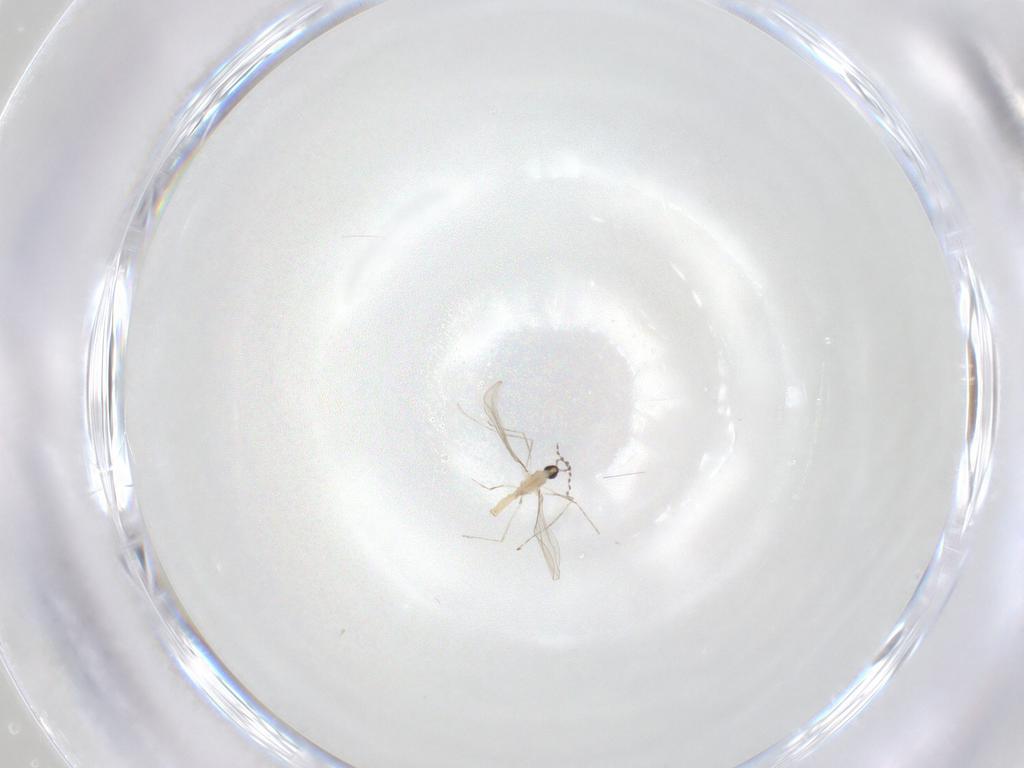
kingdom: Animalia
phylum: Arthropoda
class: Insecta
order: Diptera
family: Cecidomyiidae
